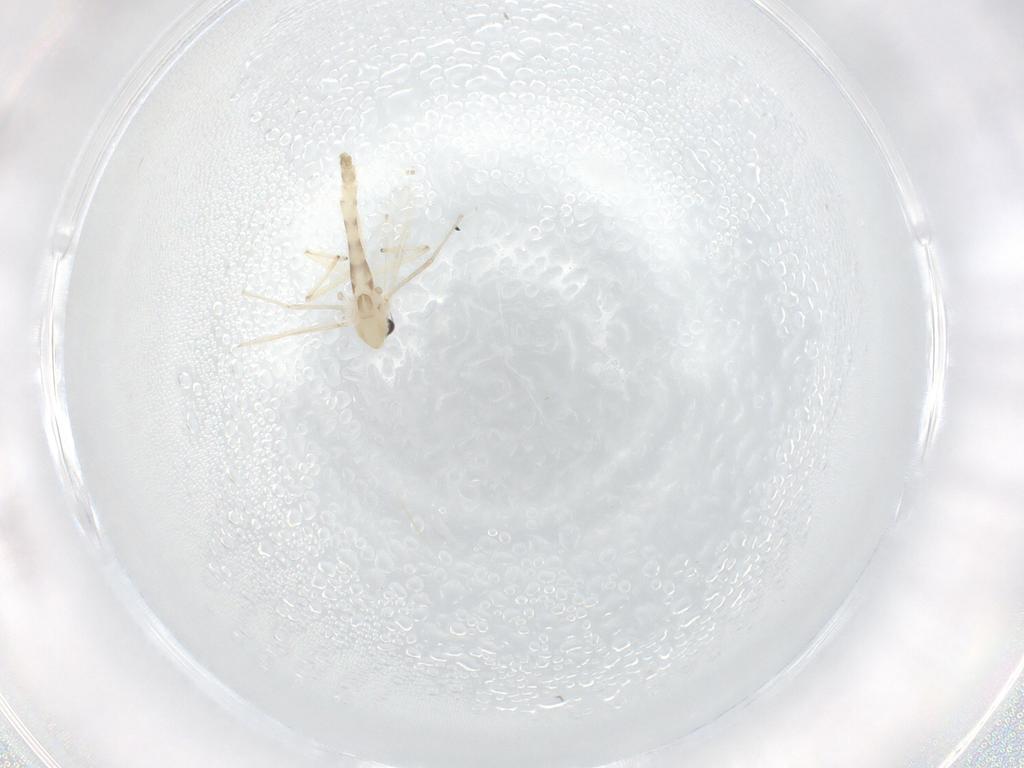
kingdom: Animalia
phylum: Arthropoda
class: Insecta
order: Diptera
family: Chironomidae
